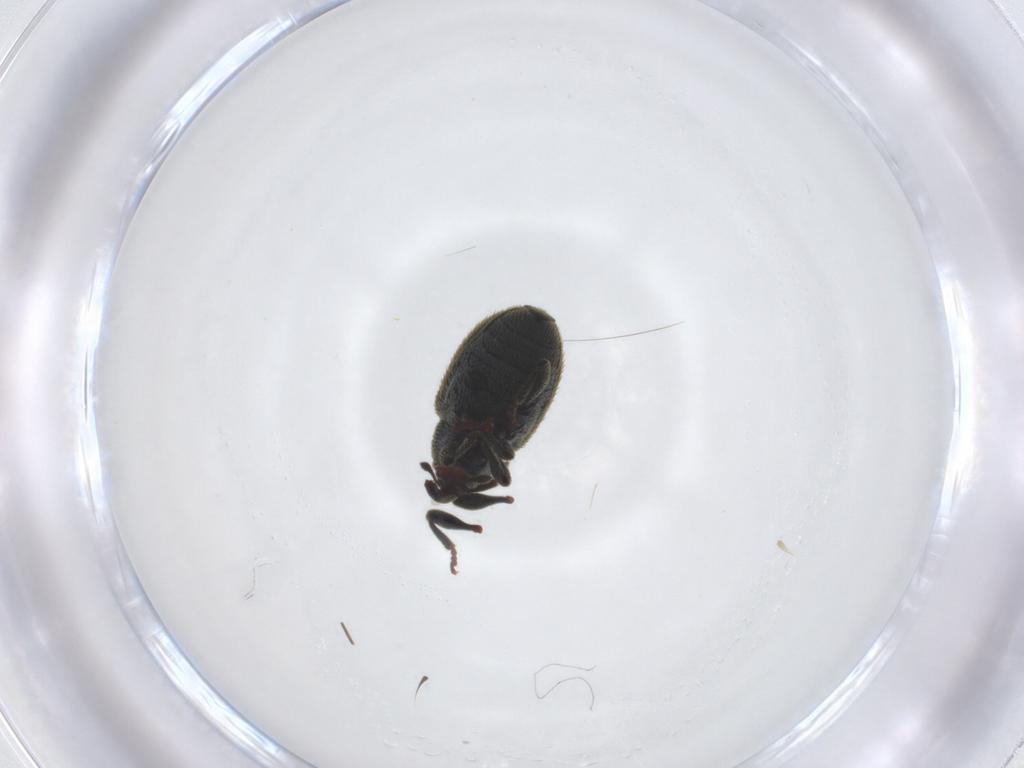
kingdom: Animalia
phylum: Arthropoda
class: Insecta
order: Coleoptera
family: Curculionidae
